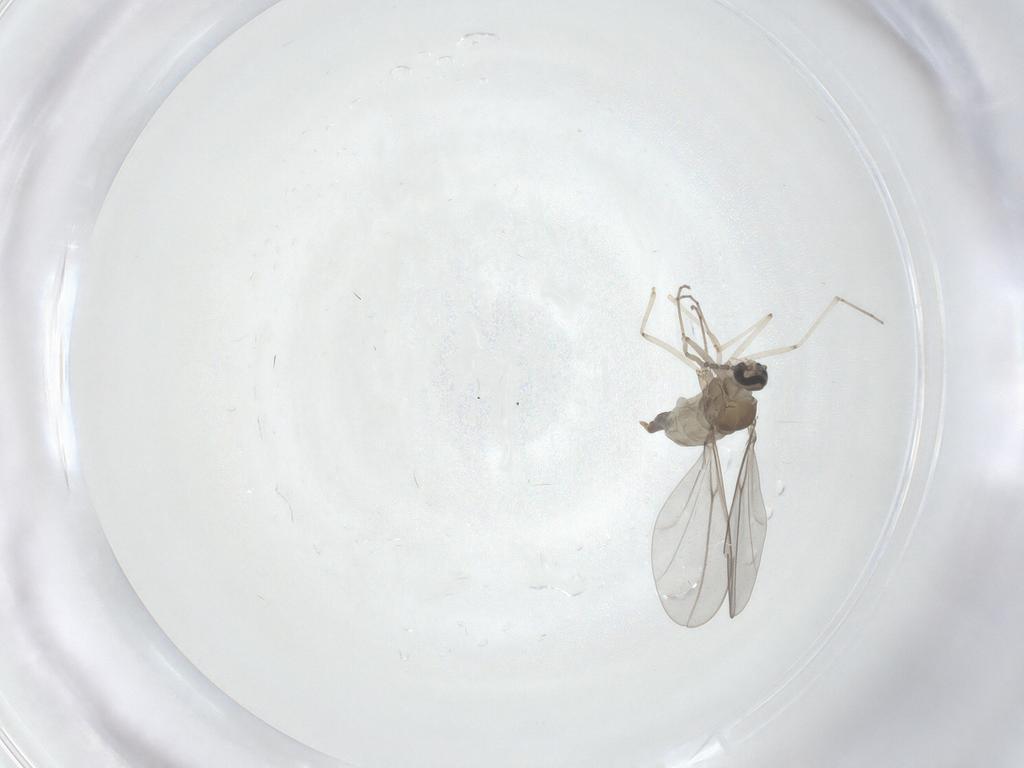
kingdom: Animalia
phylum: Arthropoda
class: Insecta
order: Diptera
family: Cecidomyiidae
